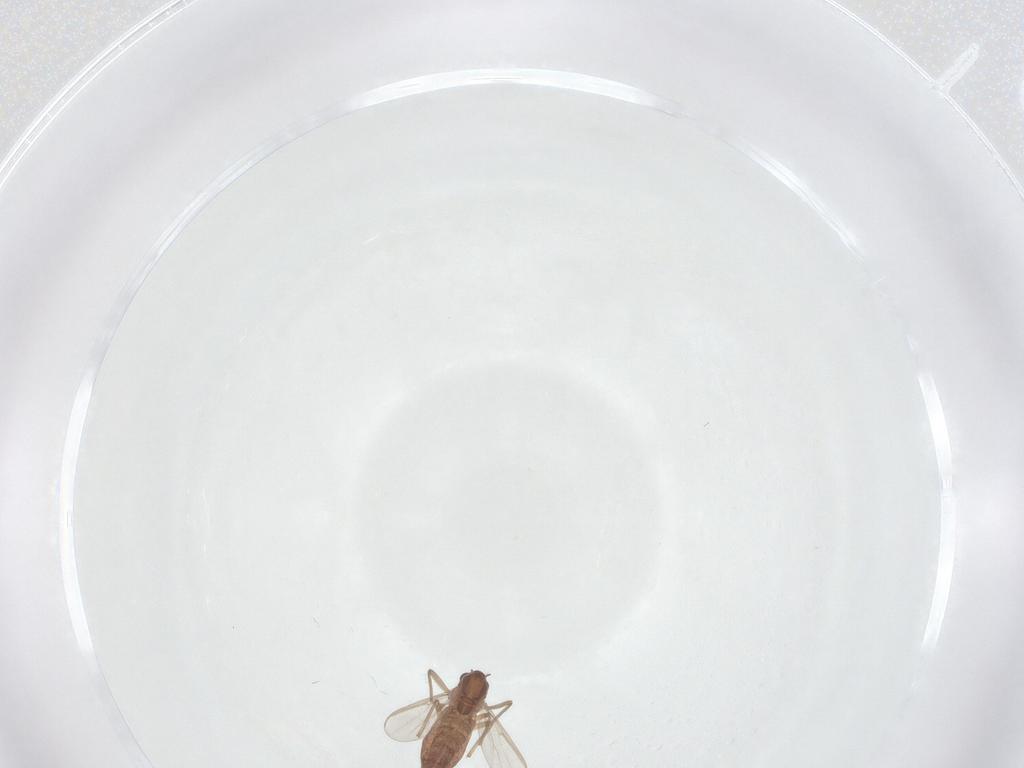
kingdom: Animalia
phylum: Arthropoda
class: Insecta
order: Diptera
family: Chironomidae
